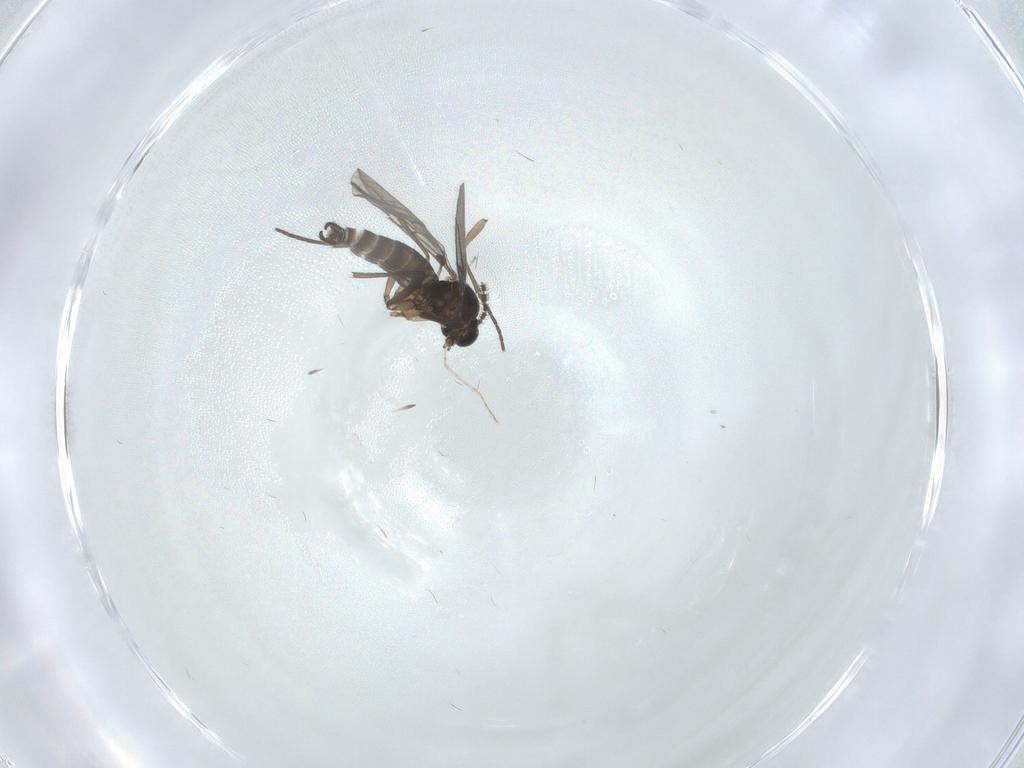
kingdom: Animalia
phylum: Arthropoda
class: Insecta
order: Diptera
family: Sciaridae
